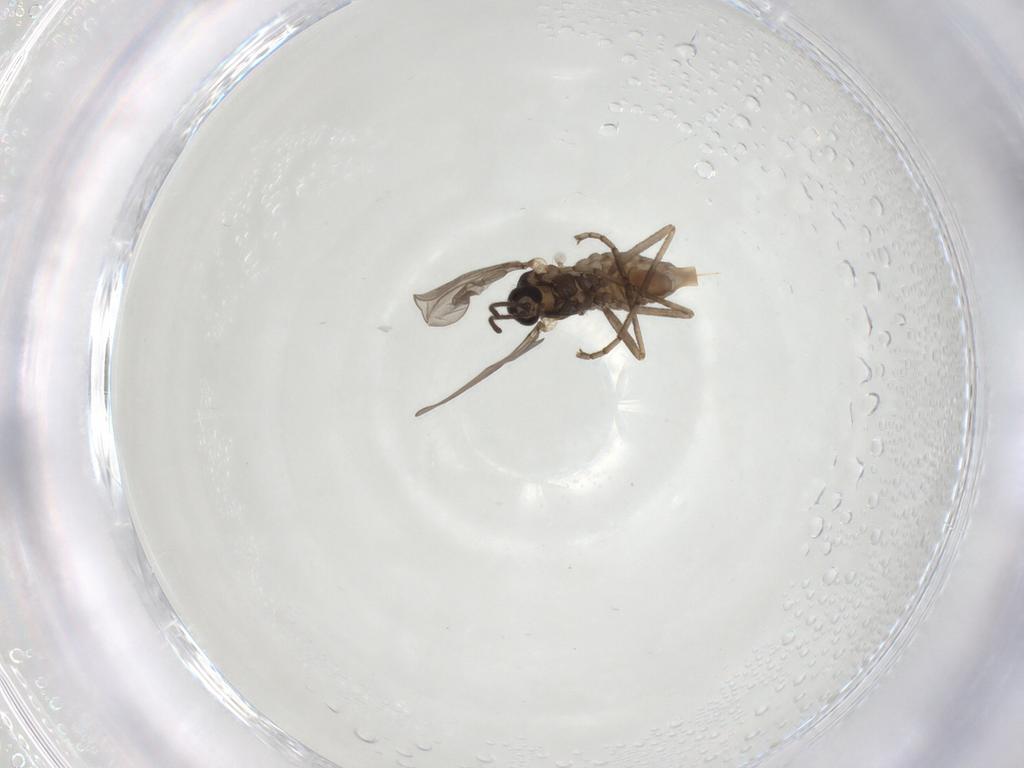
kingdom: Animalia
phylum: Arthropoda
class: Insecta
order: Diptera
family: Cecidomyiidae
